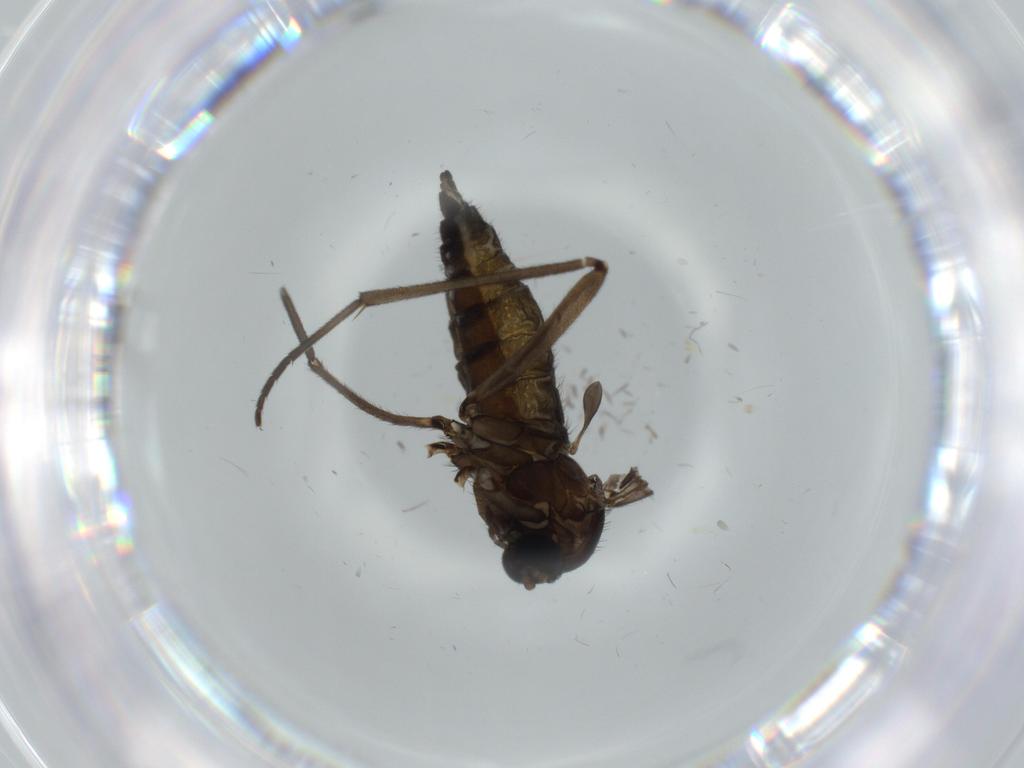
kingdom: Animalia
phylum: Arthropoda
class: Insecta
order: Diptera
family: Sciaridae
